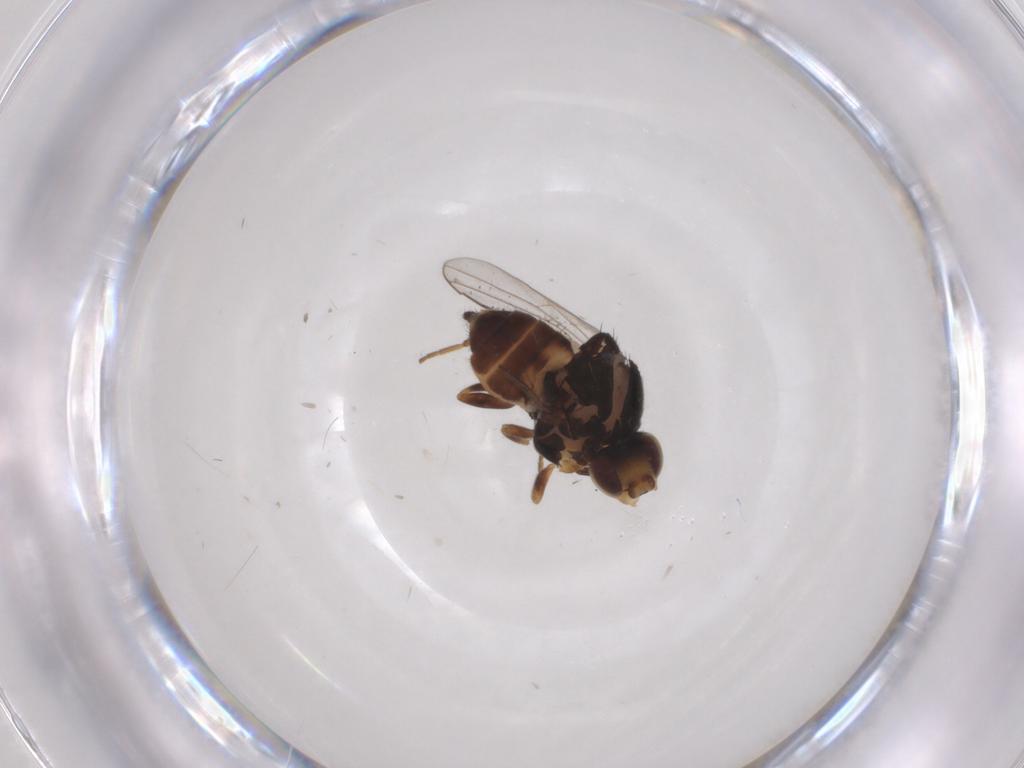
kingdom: Animalia
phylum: Arthropoda
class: Insecta
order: Diptera
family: Chloropidae
